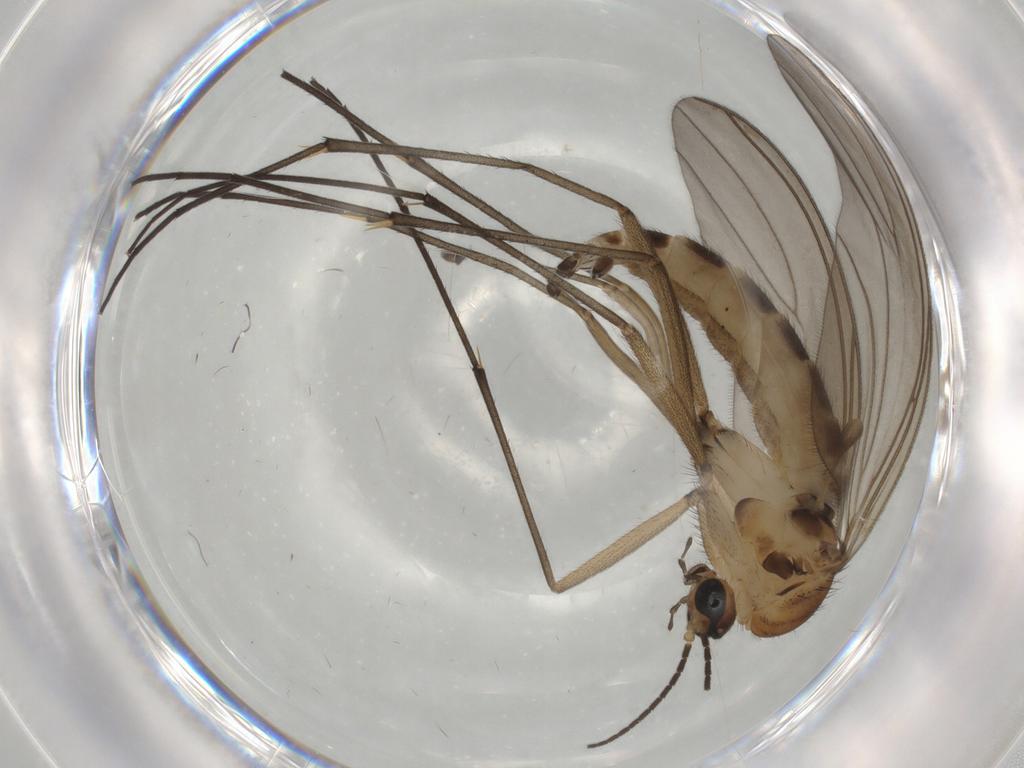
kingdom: Animalia
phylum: Arthropoda
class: Insecta
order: Diptera
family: Sciaridae
